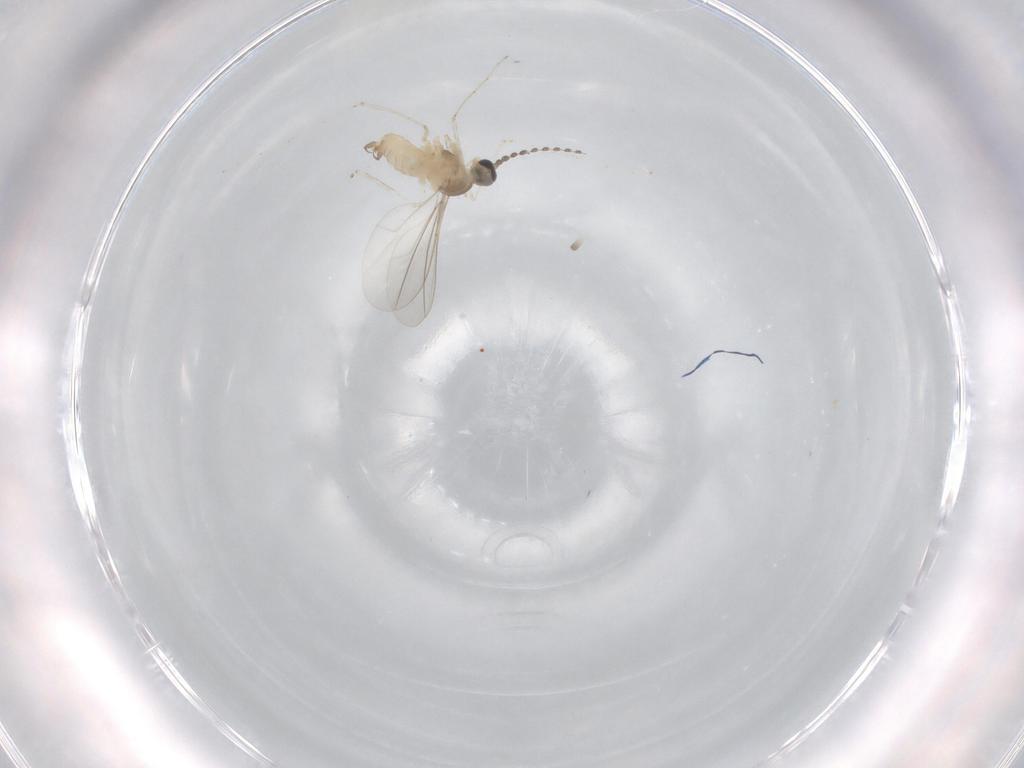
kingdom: Animalia
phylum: Arthropoda
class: Insecta
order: Diptera
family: Cecidomyiidae
